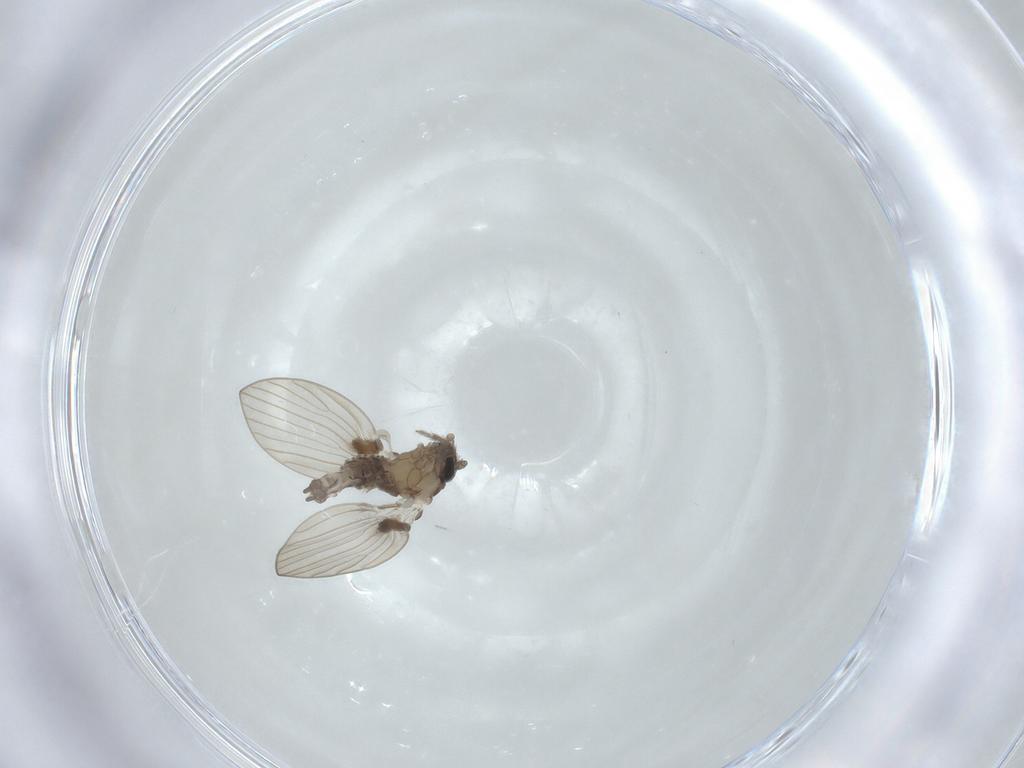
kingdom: Animalia
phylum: Arthropoda
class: Insecta
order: Diptera
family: Psychodidae
